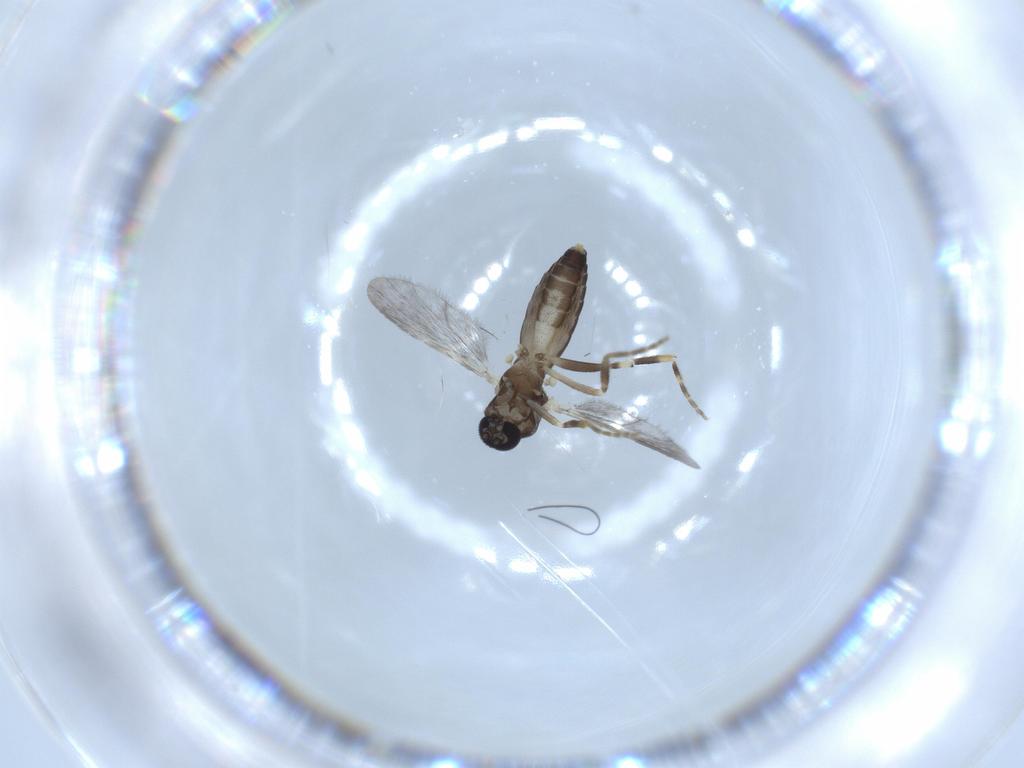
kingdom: Animalia
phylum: Arthropoda
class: Insecta
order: Diptera
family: Ceratopogonidae
